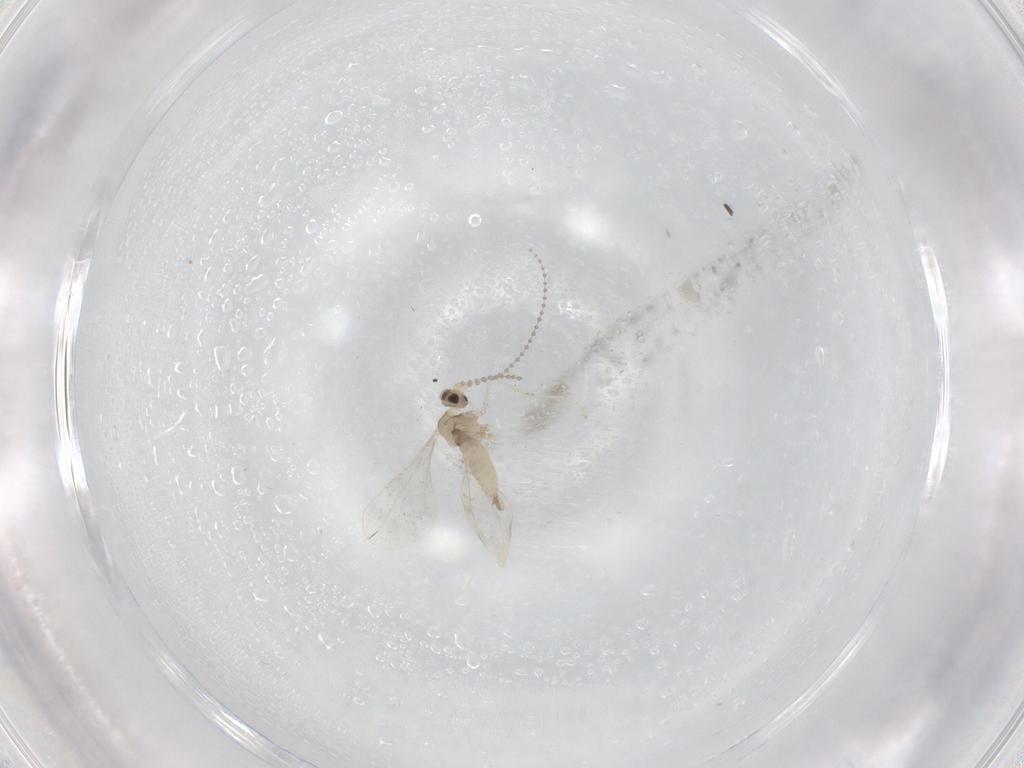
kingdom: Animalia
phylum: Arthropoda
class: Insecta
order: Diptera
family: Chironomidae
